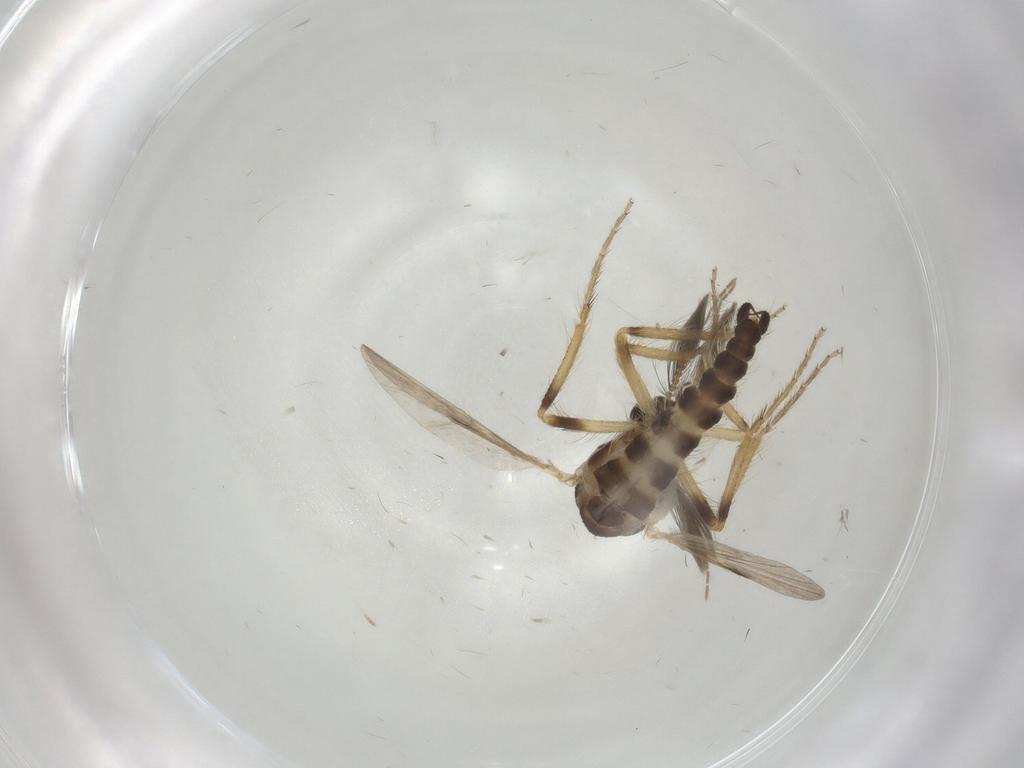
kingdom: Animalia
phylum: Arthropoda
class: Insecta
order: Diptera
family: Ceratopogonidae
